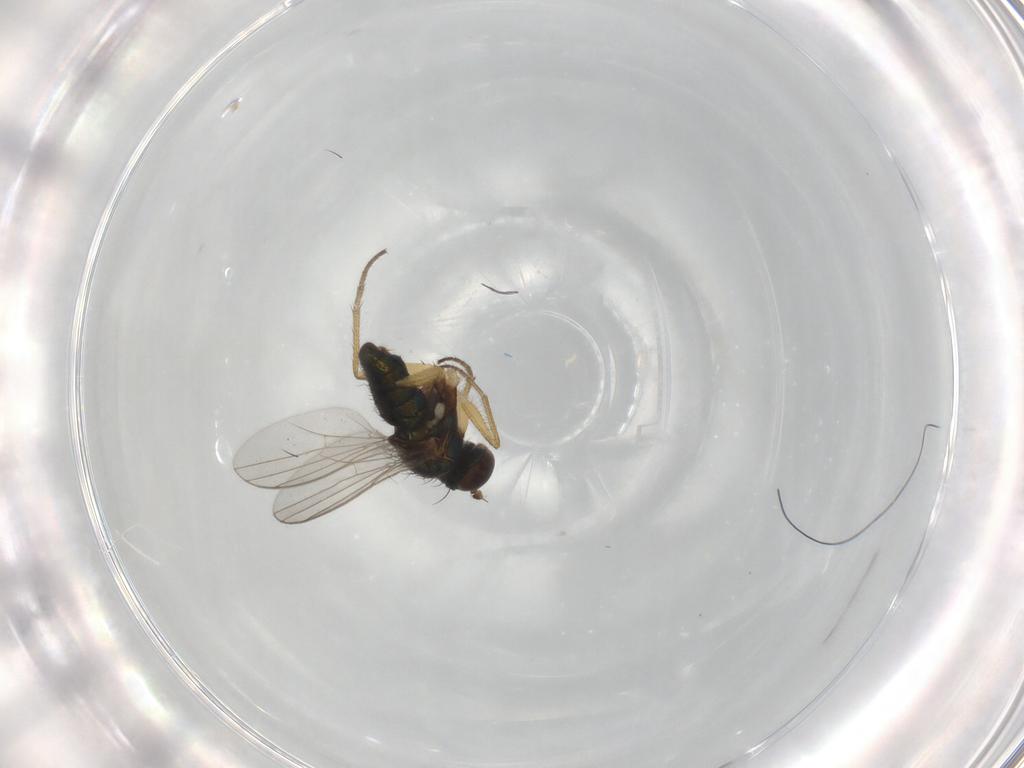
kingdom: Animalia
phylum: Arthropoda
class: Insecta
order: Diptera
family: Dolichopodidae
